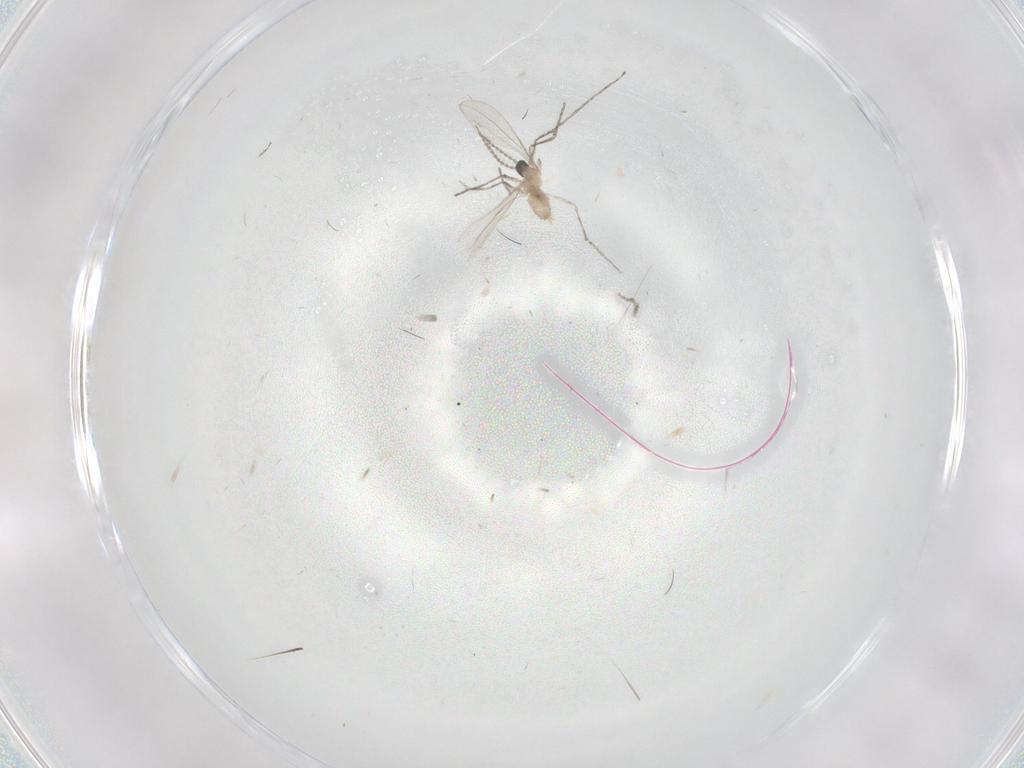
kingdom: Animalia
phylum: Arthropoda
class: Insecta
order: Diptera
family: Cecidomyiidae
